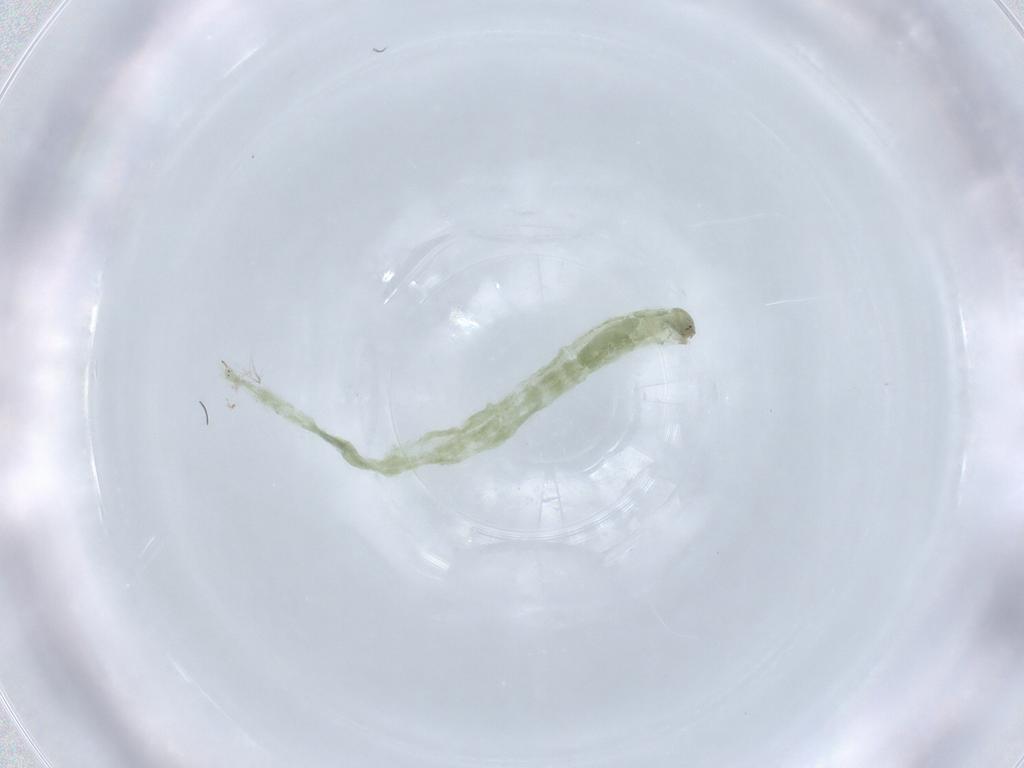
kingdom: Animalia
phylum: Arthropoda
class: Insecta
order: Diptera
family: Chironomidae
